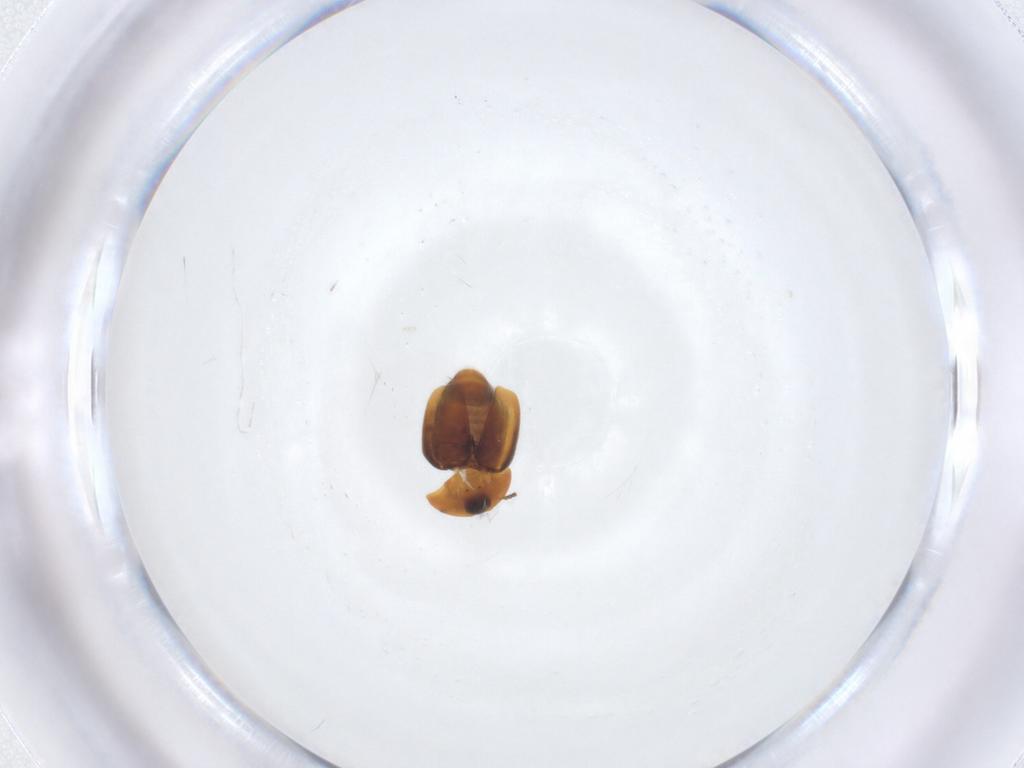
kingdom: Animalia
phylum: Arthropoda
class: Insecta
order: Coleoptera
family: Corylophidae
